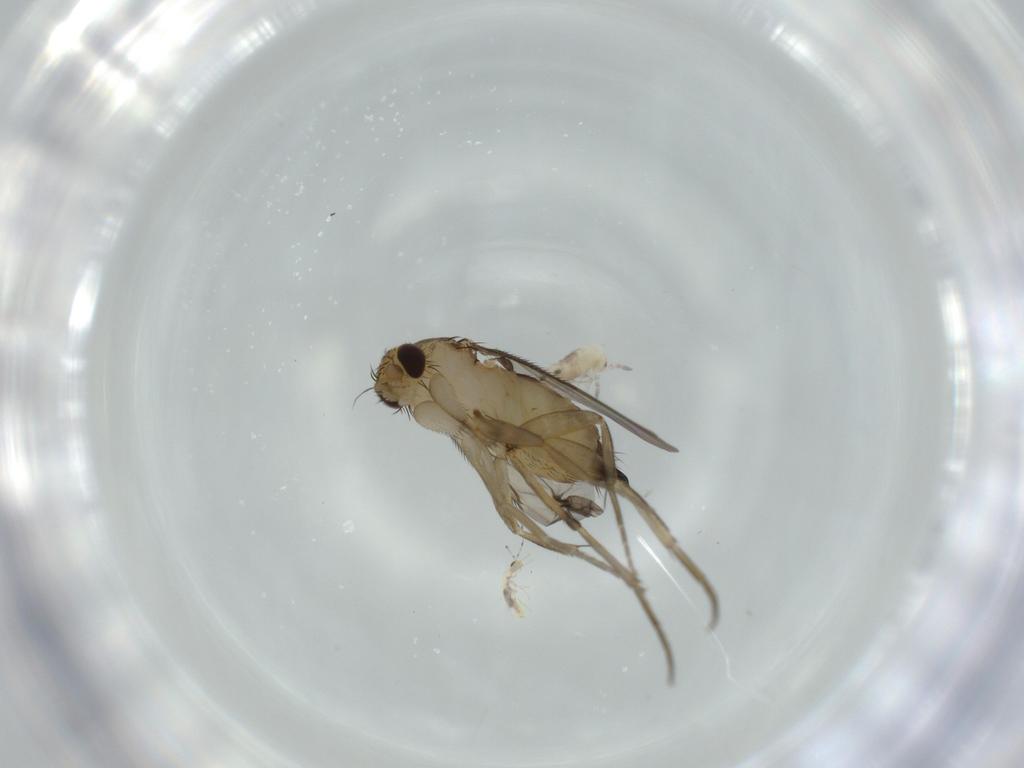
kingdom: Animalia
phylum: Arthropoda
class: Insecta
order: Diptera
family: Phoridae
